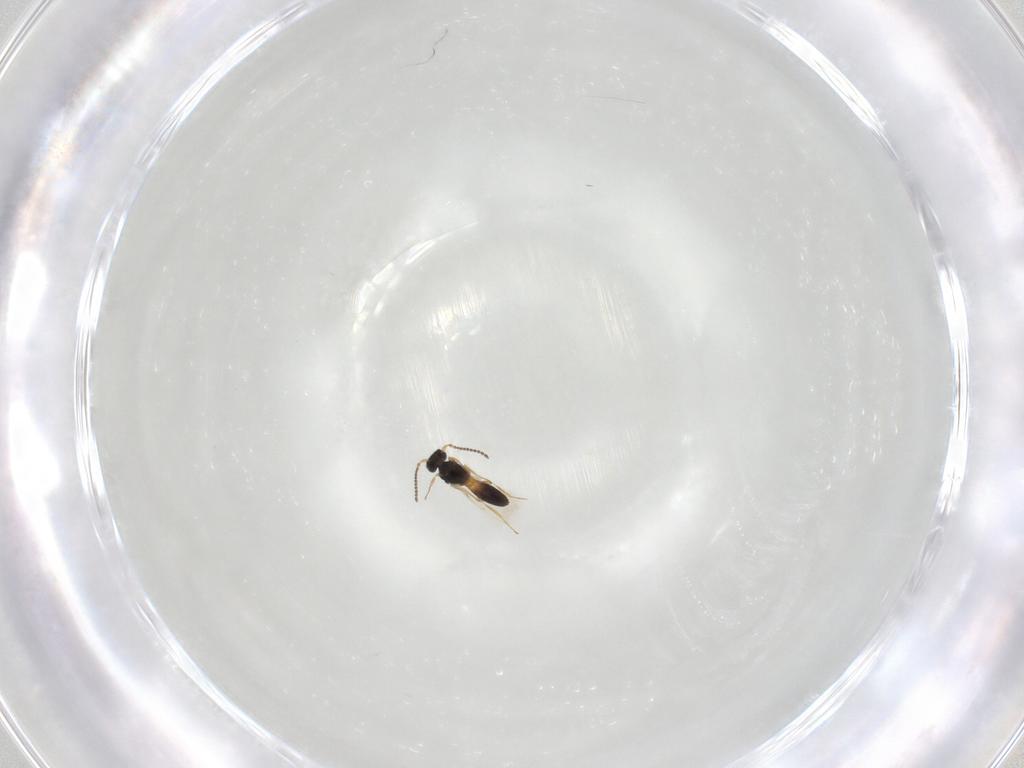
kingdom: Animalia
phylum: Arthropoda
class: Insecta
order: Hymenoptera
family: Scelionidae
